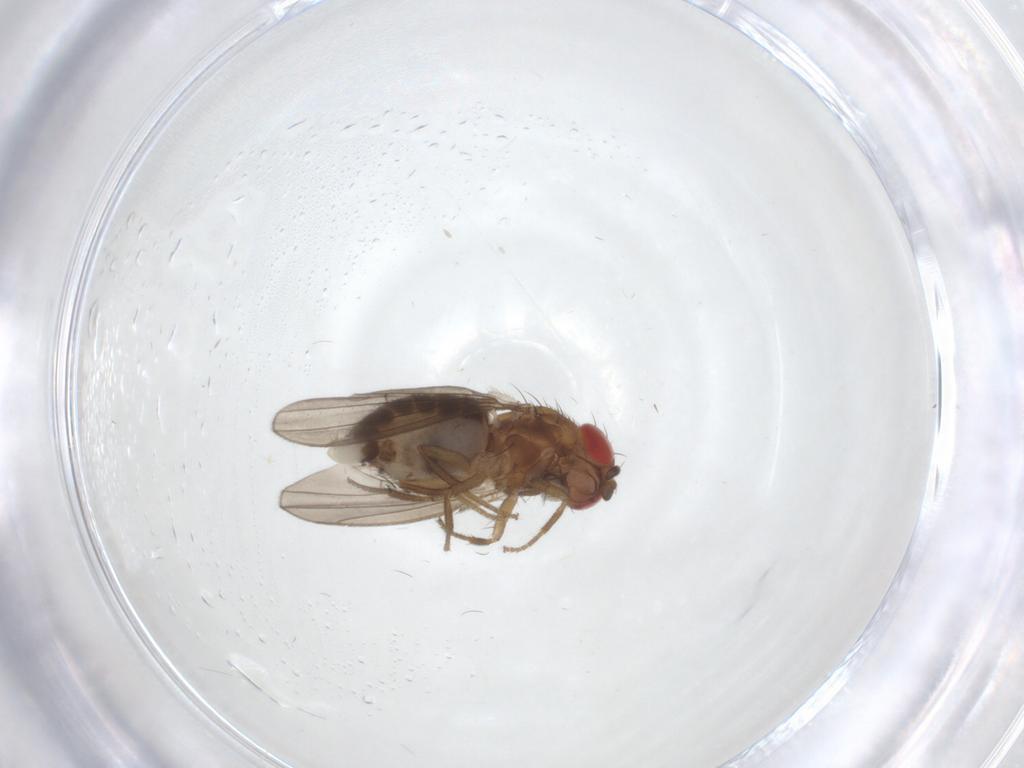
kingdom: Animalia
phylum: Arthropoda
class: Insecta
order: Diptera
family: Drosophilidae
